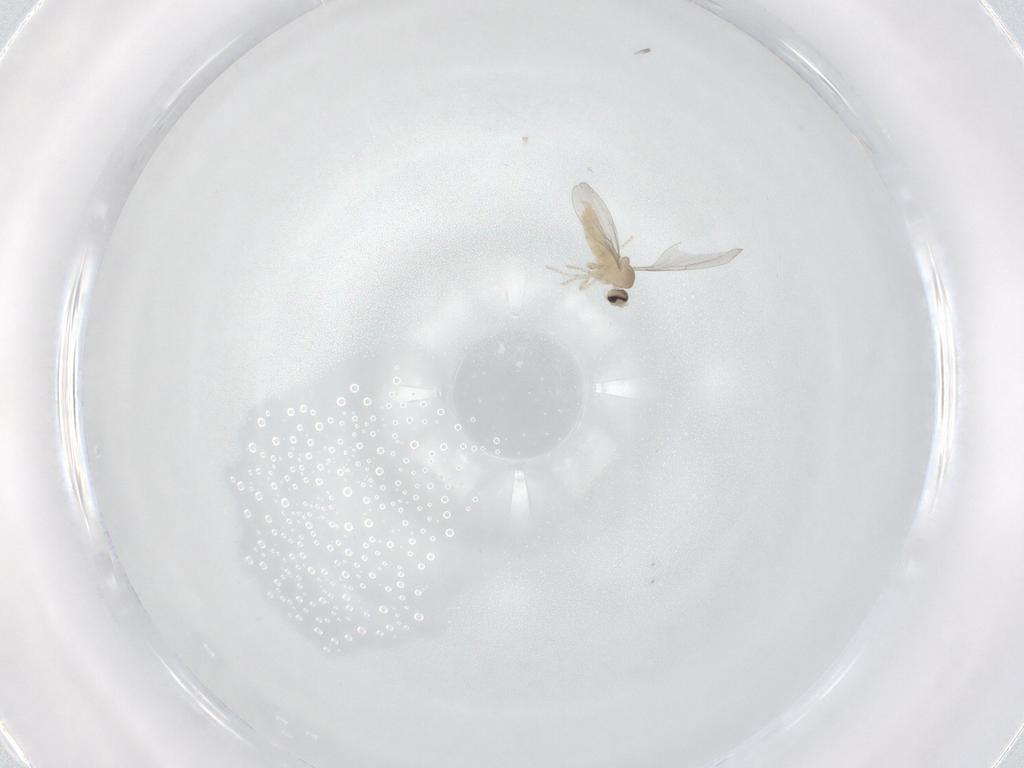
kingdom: Animalia
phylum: Arthropoda
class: Insecta
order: Diptera
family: Cecidomyiidae
